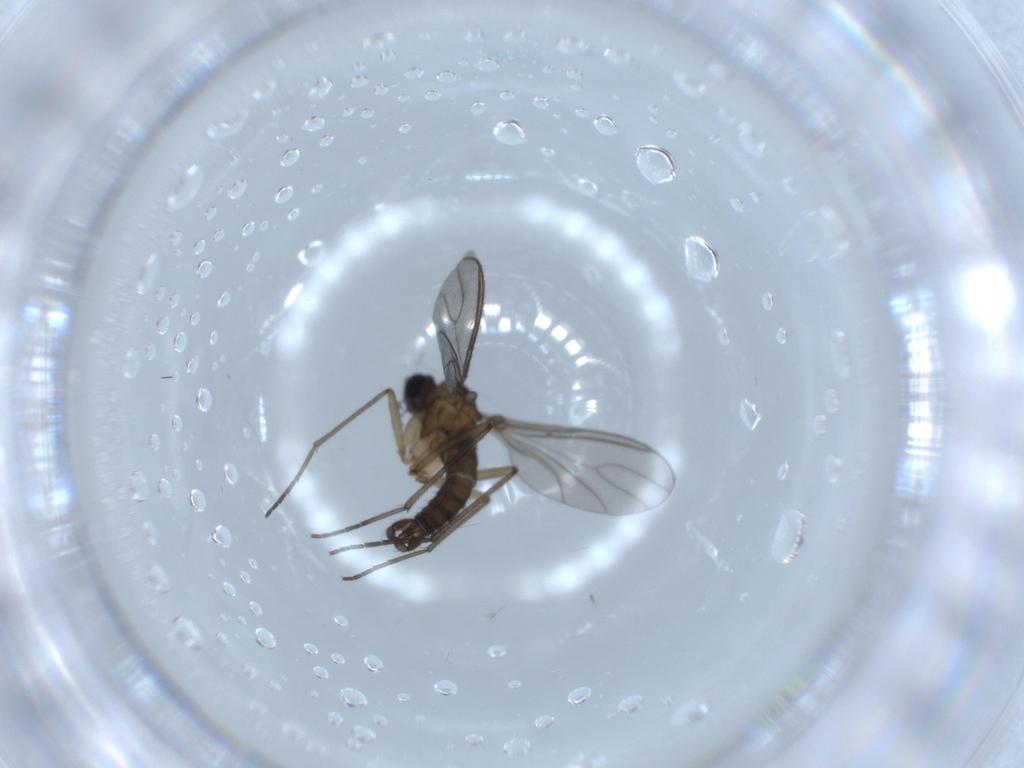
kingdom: Animalia
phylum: Arthropoda
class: Insecta
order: Diptera
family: Sciaridae
